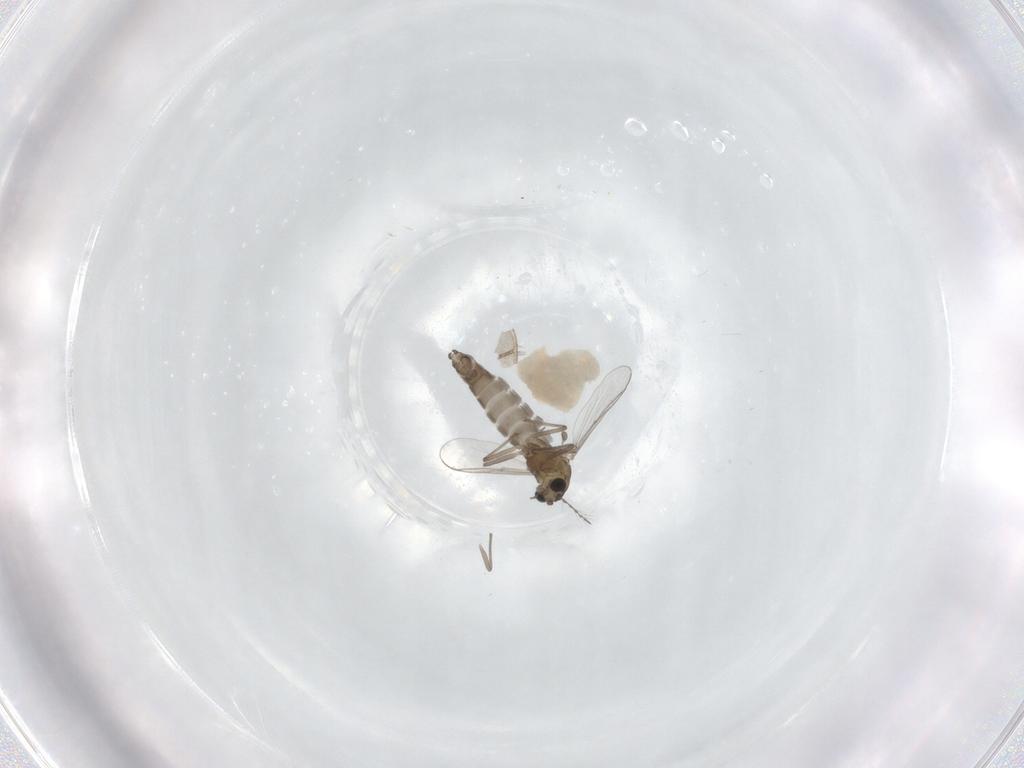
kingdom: Animalia
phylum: Arthropoda
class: Insecta
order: Diptera
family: Chironomidae
